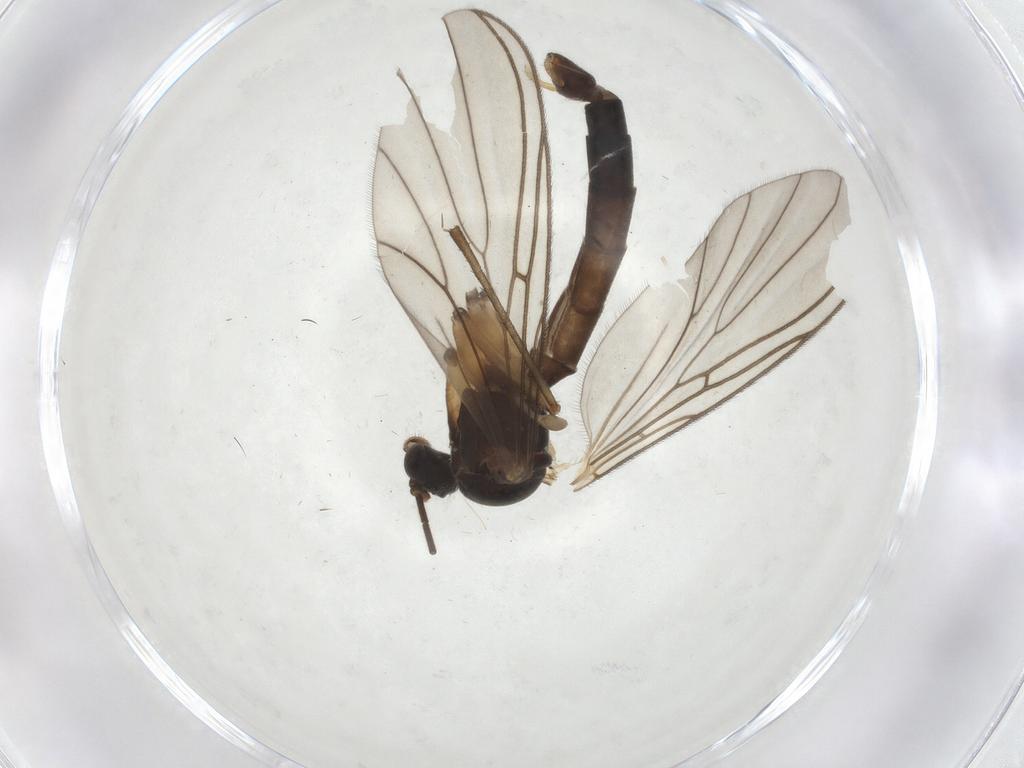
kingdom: Animalia
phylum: Arthropoda
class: Insecta
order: Diptera
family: Mycetophilidae
